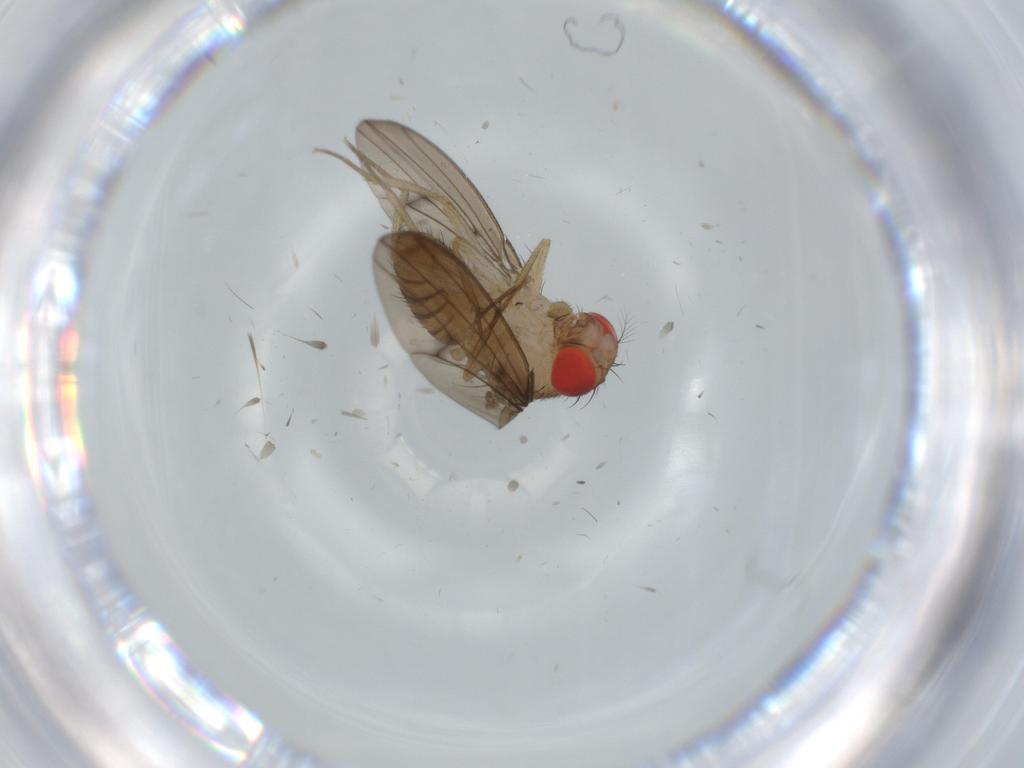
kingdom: Animalia
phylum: Arthropoda
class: Insecta
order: Diptera
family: Drosophilidae
